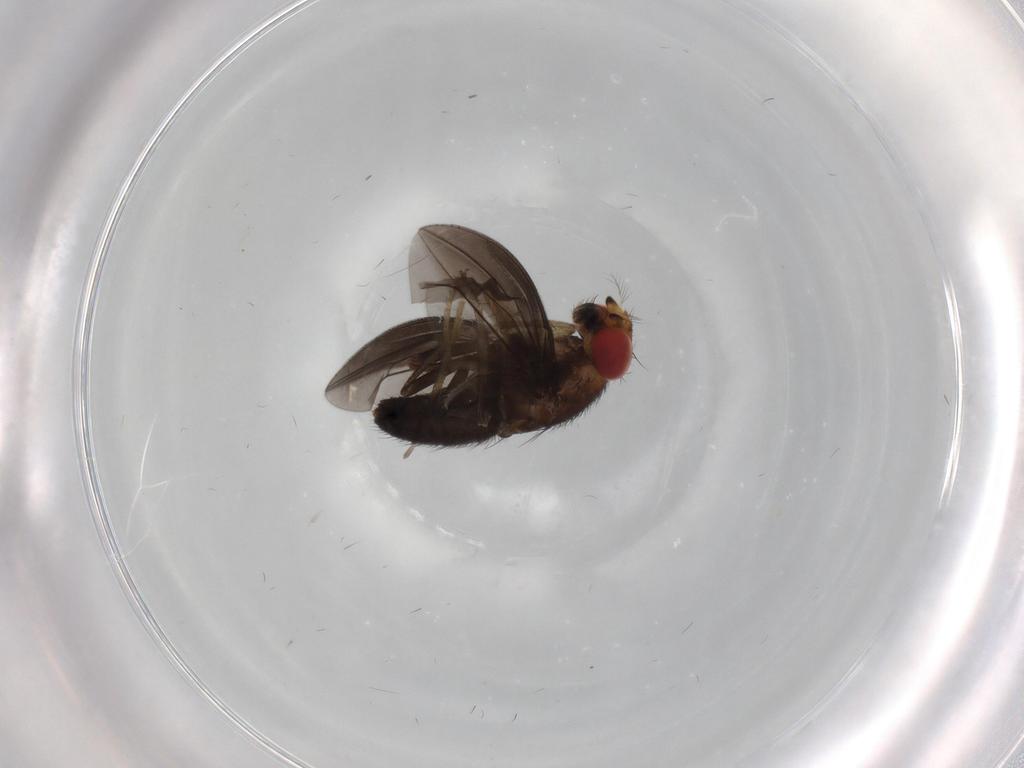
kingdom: Animalia
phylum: Arthropoda
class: Insecta
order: Diptera
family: Drosophilidae
